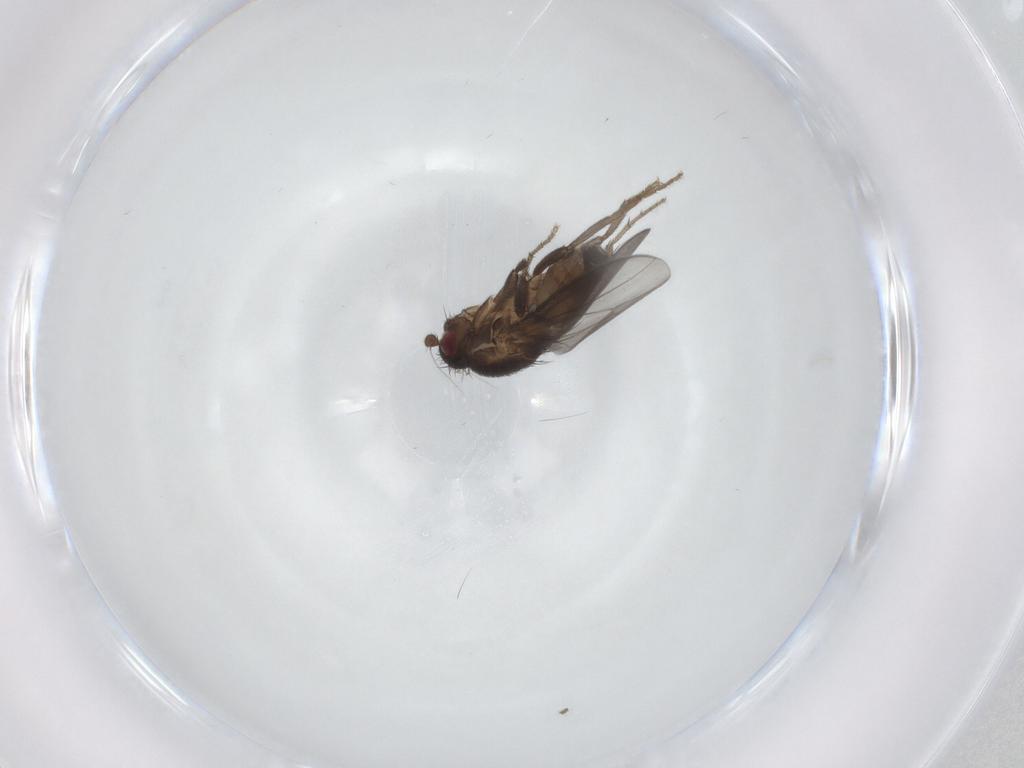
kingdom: Animalia
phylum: Arthropoda
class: Insecta
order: Diptera
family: Sphaeroceridae
